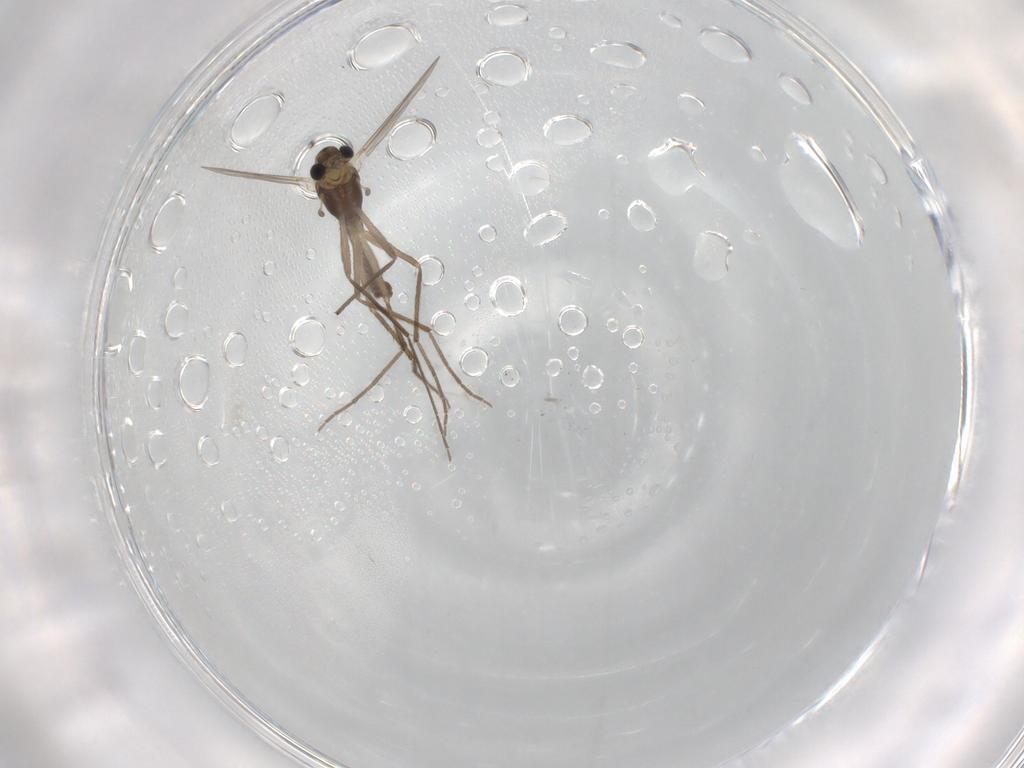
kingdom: Animalia
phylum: Arthropoda
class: Insecta
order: Diptera
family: Chironomidae
